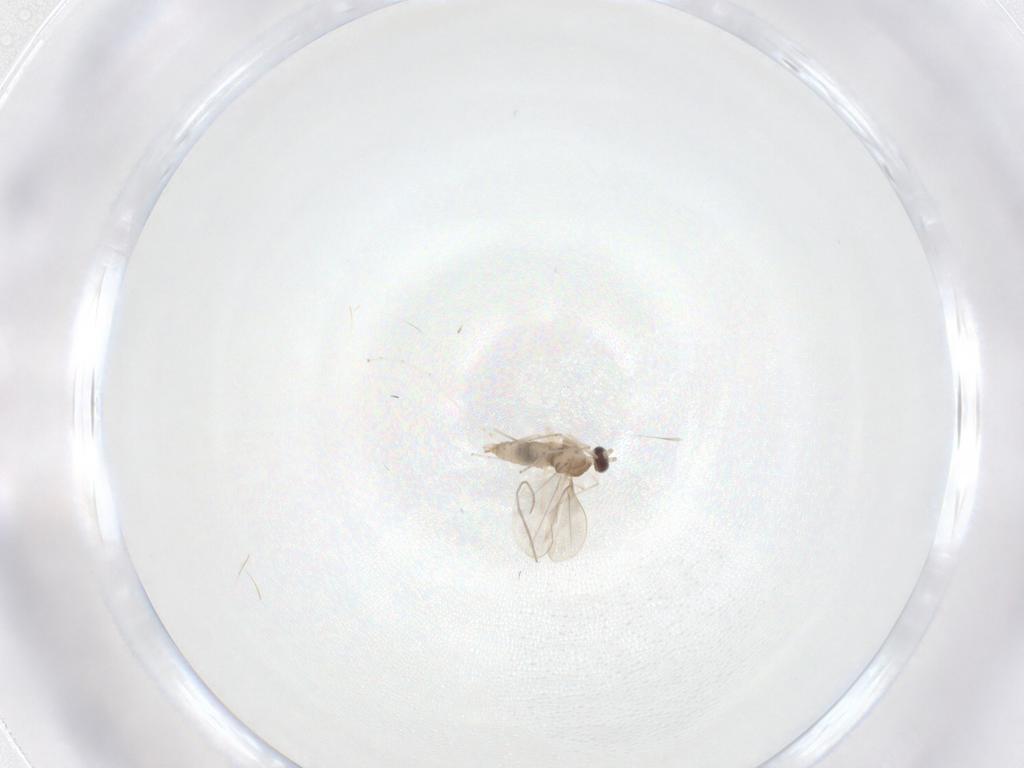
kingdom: Animalia
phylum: Arthropoda
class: Insecta
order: Diptera
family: Cecidomyiidae
